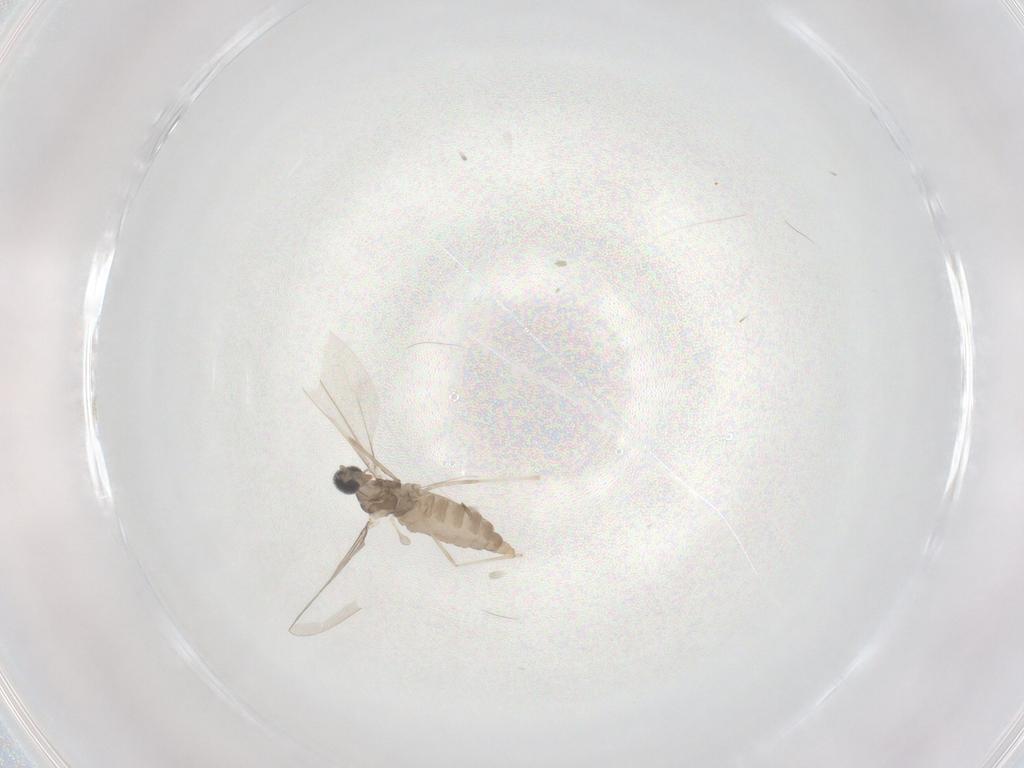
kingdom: Animalia
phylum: Arthropoda
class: Insecta
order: Diptera
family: Cecidomyiidae
